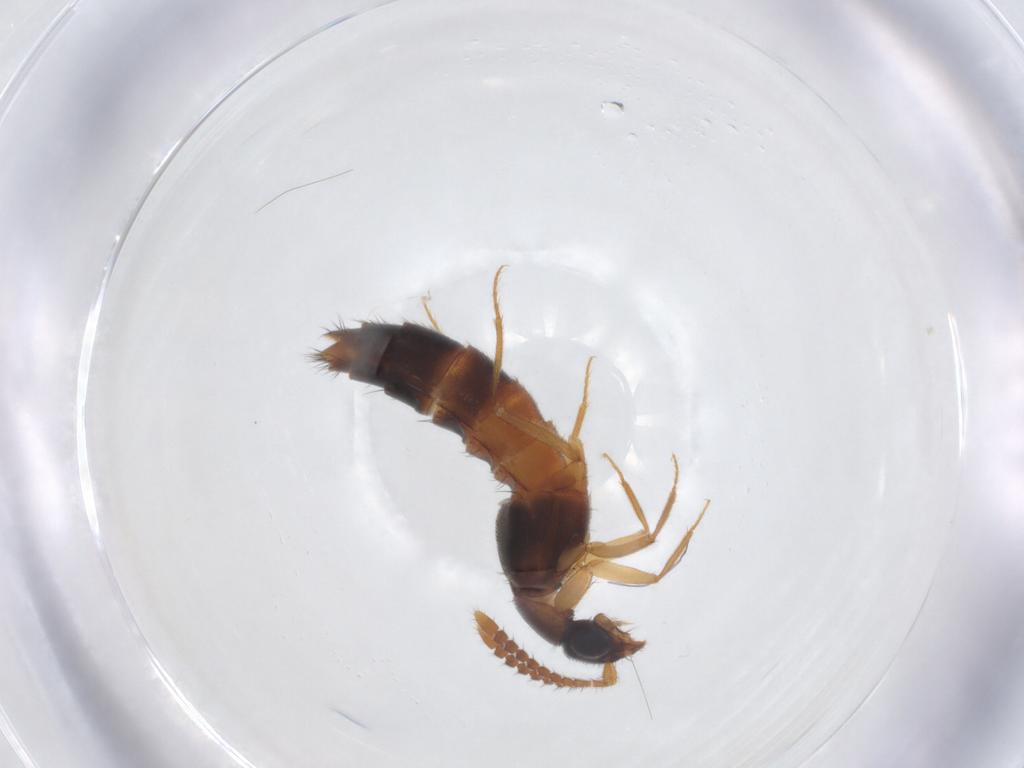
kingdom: Animalia
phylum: Arthropoda
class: Insecta
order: Coleoptera
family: Staphylinidae
